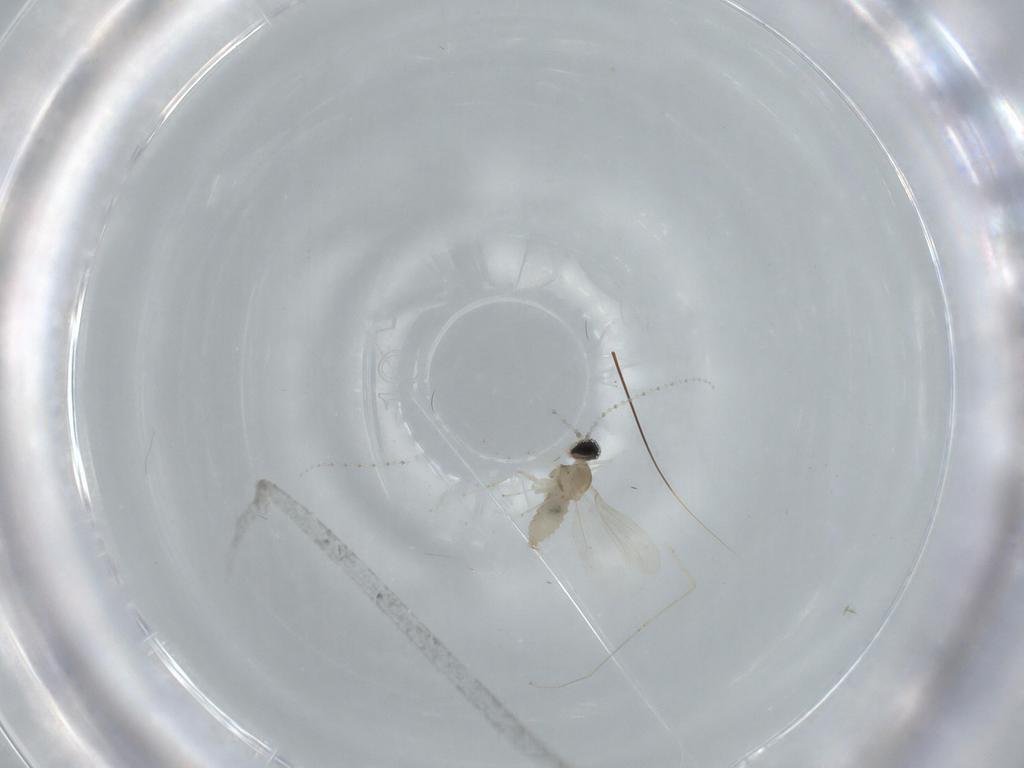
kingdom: Animalia
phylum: Arthropoda
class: Insecta
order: Diptera
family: Cecidomyiidae
